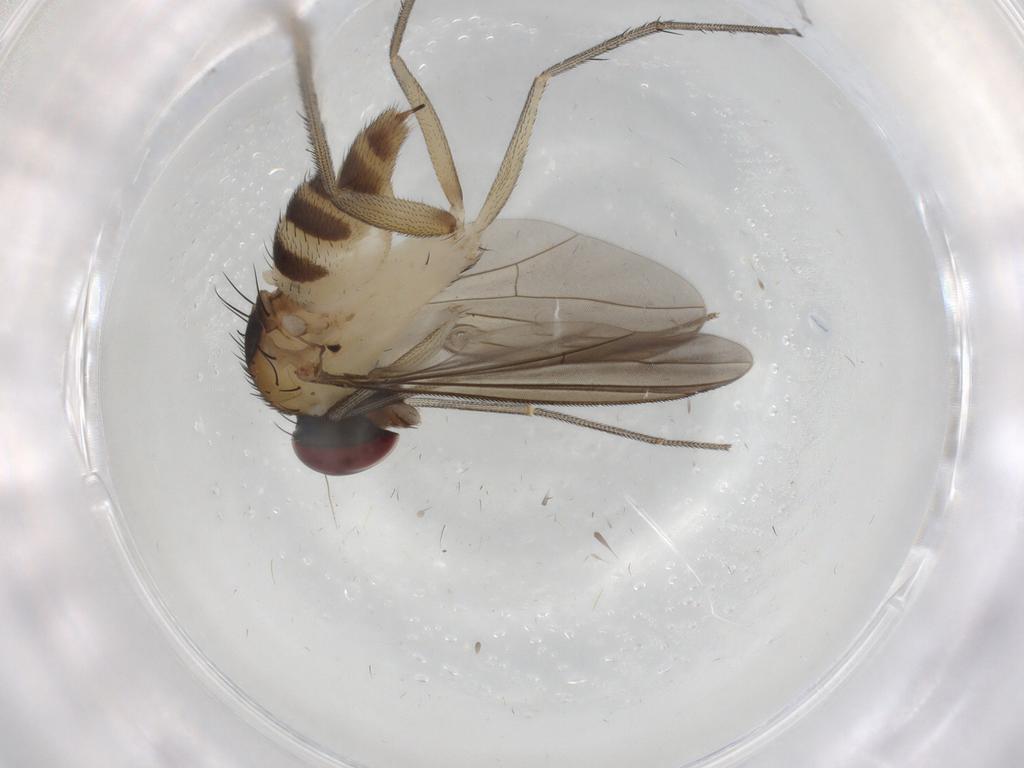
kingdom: Animalia
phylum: Arthropoda
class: Insecta
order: Diptera
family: Dolichopodidae
